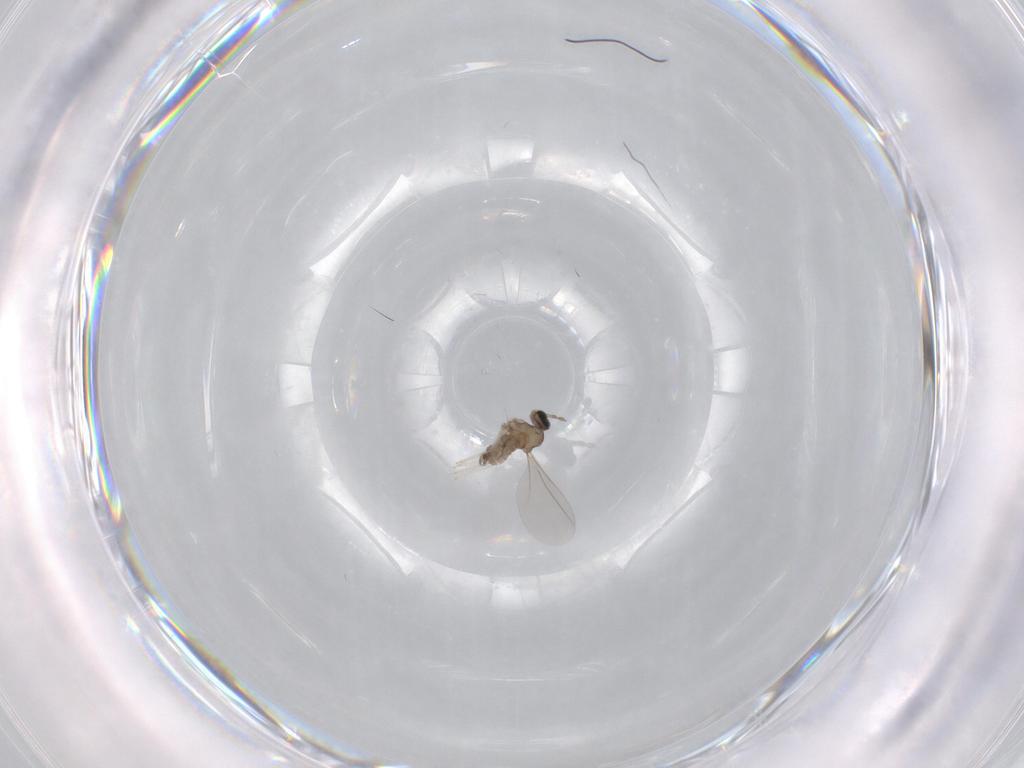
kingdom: Animalia
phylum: Arthropoda
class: Insecta
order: Diptera
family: Cecidomyiidae
